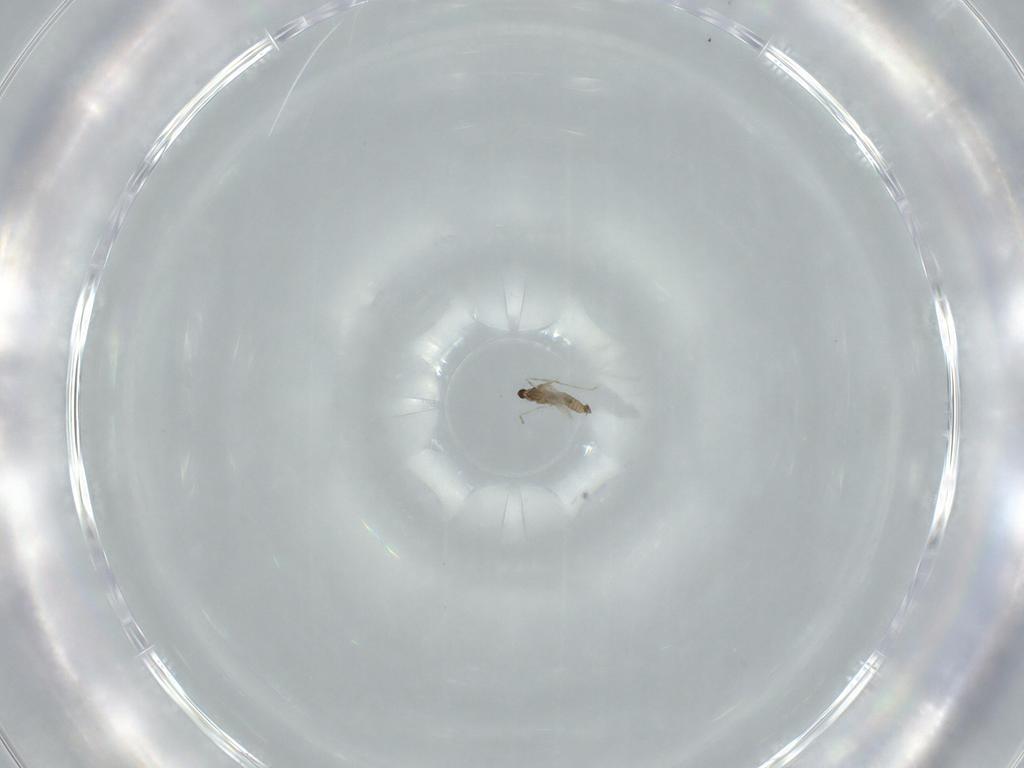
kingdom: Animalia
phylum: Arthropoda
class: Insecta
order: Diptera
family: Cecidomyiidae
